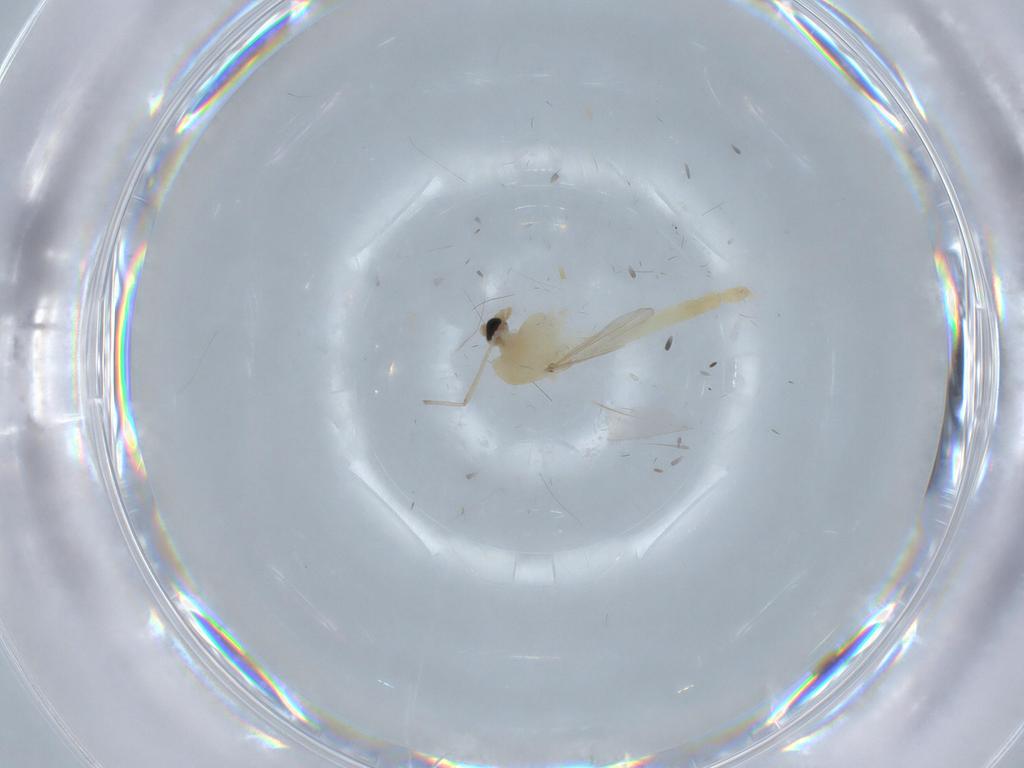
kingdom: Animalia
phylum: Arthropoda
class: Insecta
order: Diptera
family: Chironomidae
